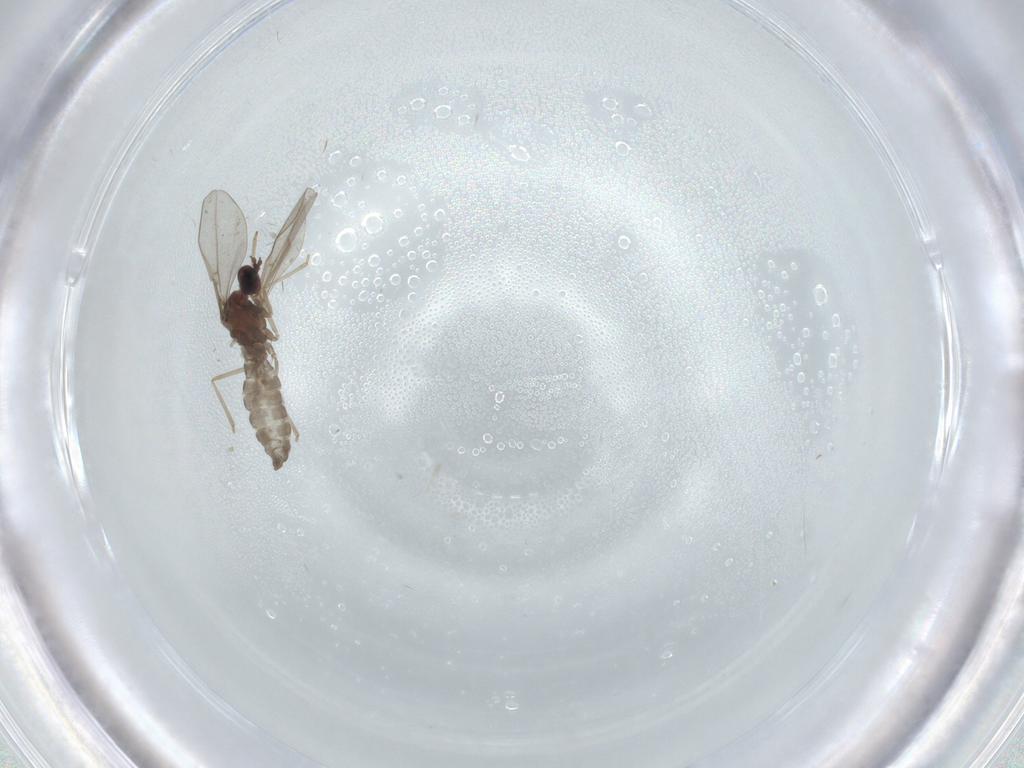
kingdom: Animalia
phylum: Arthropoda
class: Insecta
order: Diptera
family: Cecidomyiidae
